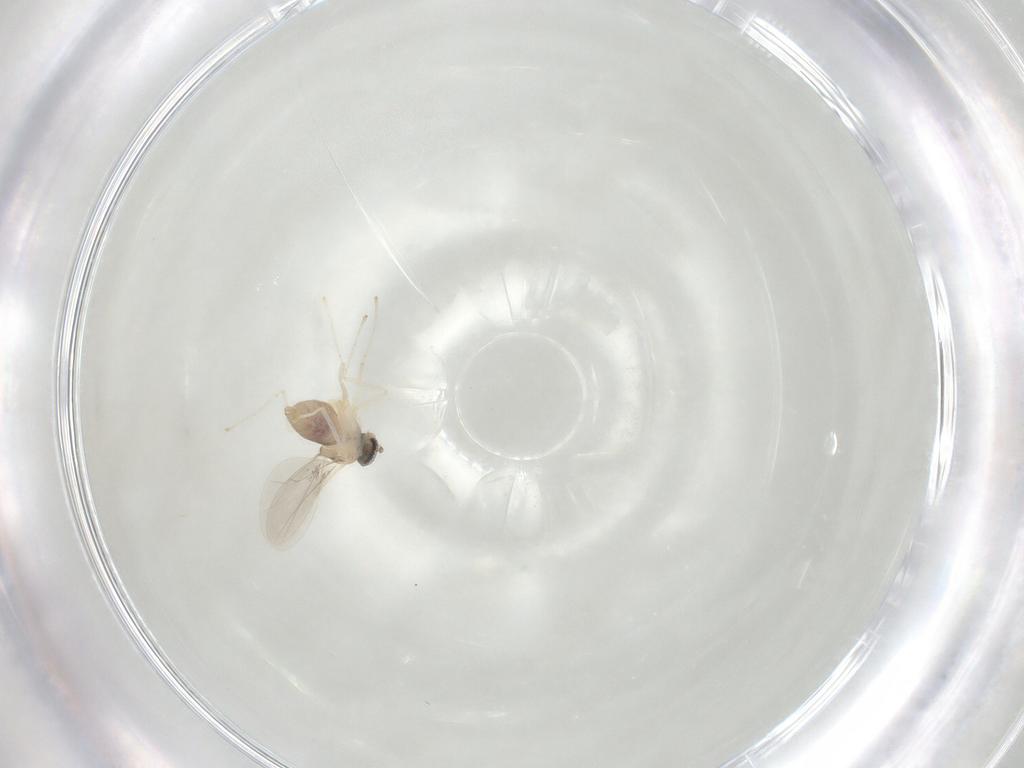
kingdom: Animalia
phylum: Arthropoda
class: Insecta
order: Diptera
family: Cecidomyiidae
